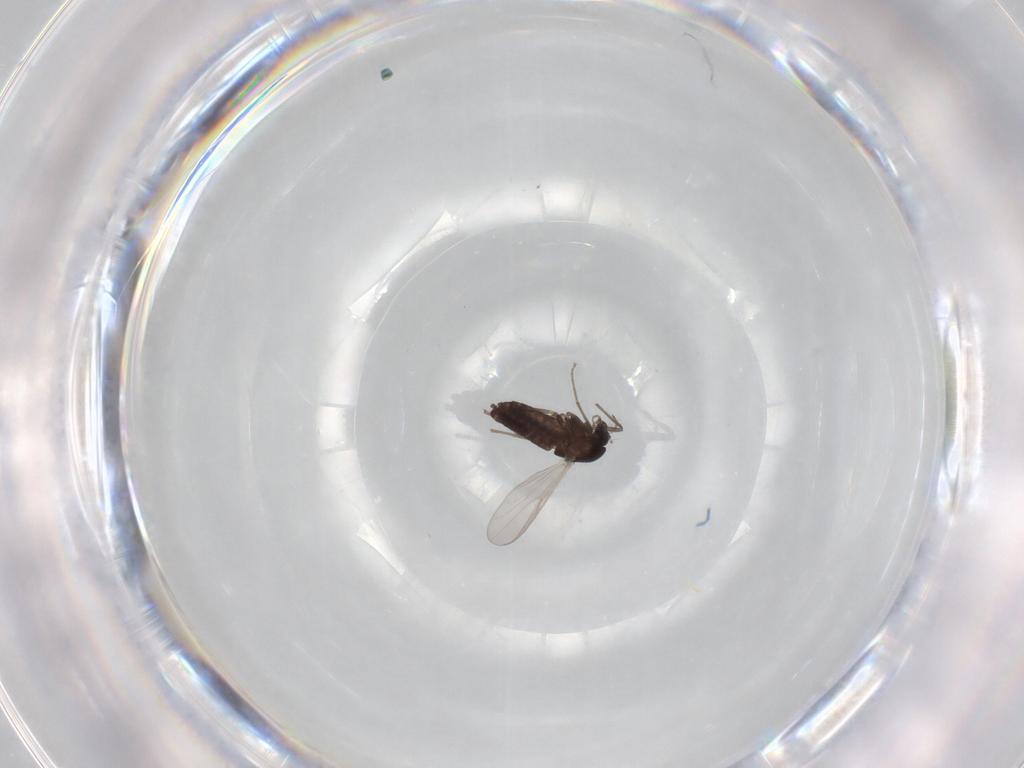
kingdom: Animalia
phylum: Arthropoda
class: Insecta
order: Diptera
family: Chironomidae
